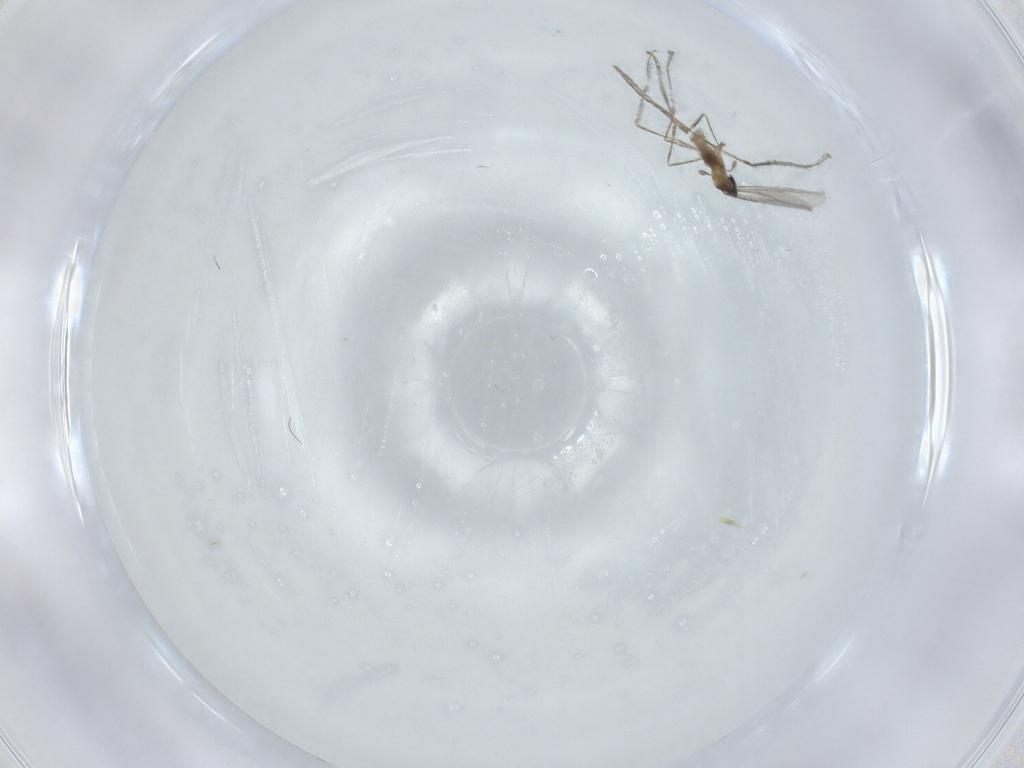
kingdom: Animalia
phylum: Arthropoda
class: Insecta
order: Diptera
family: Cecidomyiidae
